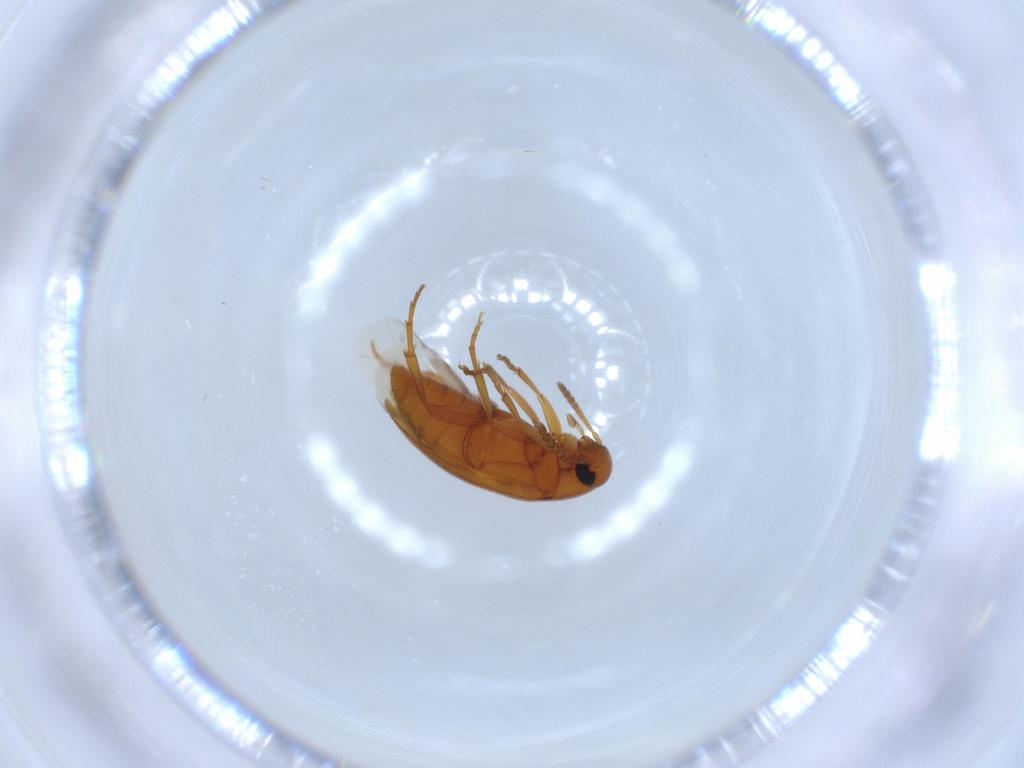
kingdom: Animalia
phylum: Arthropoda
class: Insecta
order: Coleoptera
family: Scraptiidae
